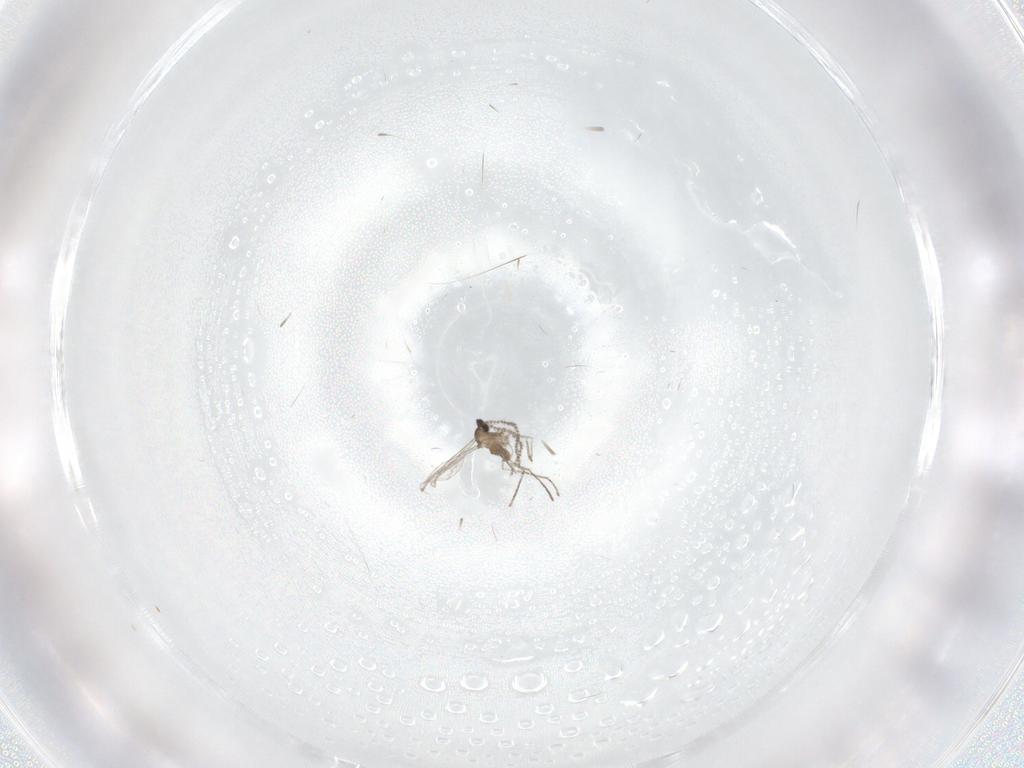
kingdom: Animalia
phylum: Arthropoda
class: Insecta
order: Diptera
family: Cecidomyiidae
